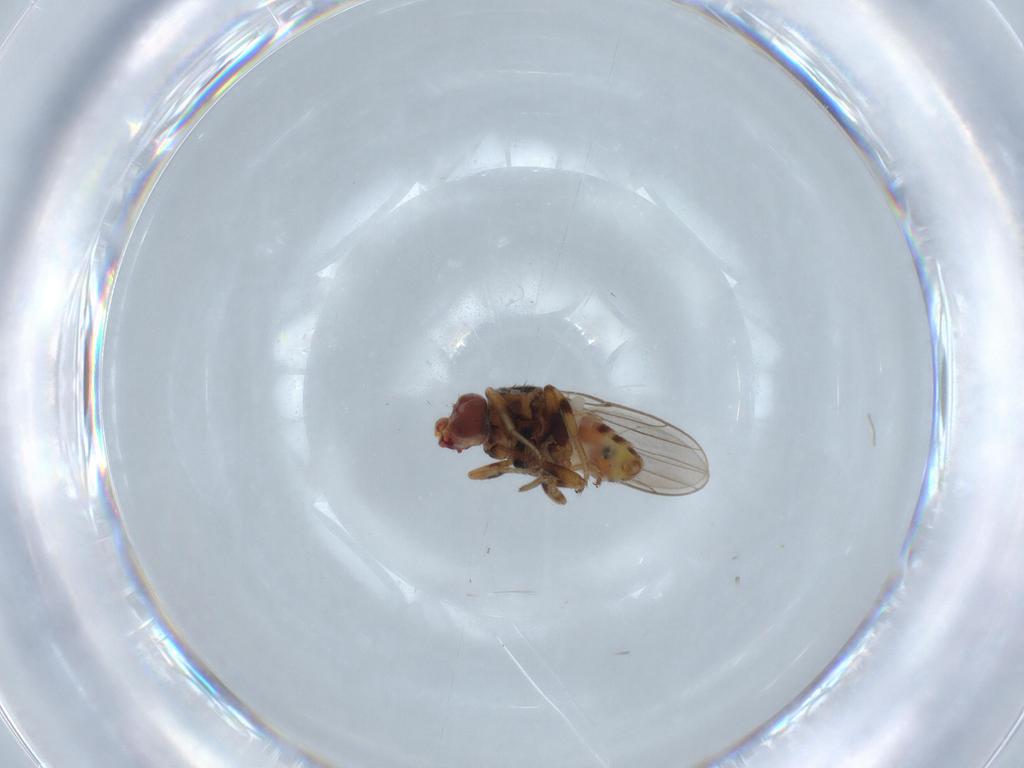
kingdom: Animalia
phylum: Arthropoda
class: Insecta
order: Diptera
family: Chloropidae
